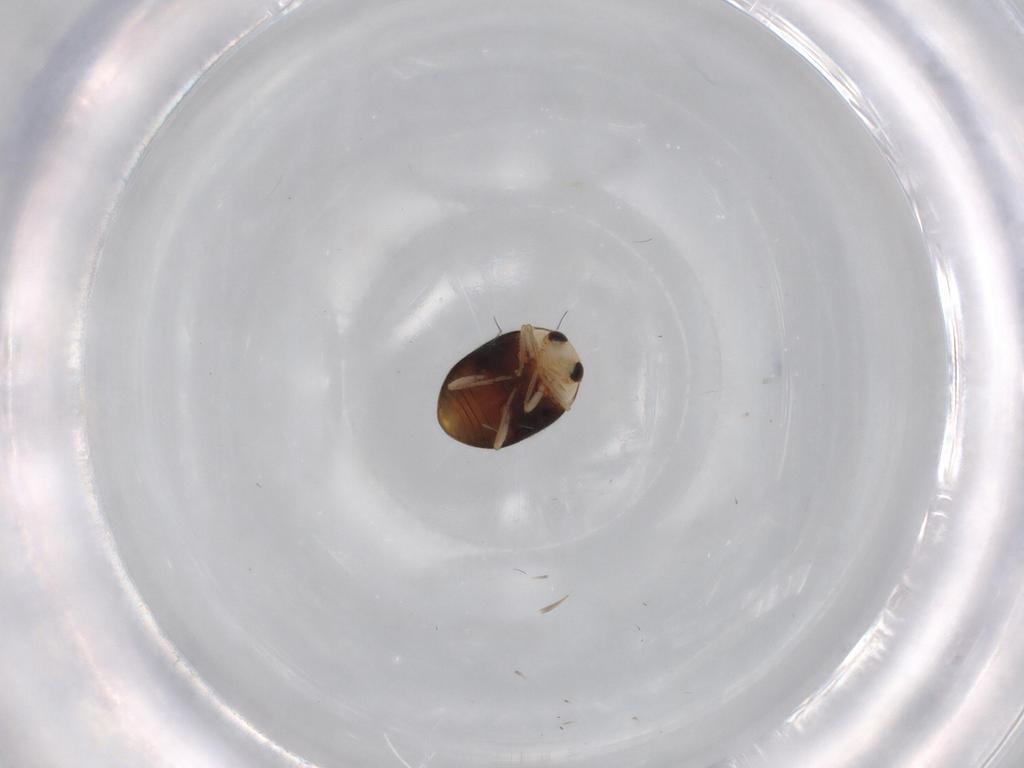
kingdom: Animalia
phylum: Arthropoda
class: Insecta
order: Coleoptera
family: Coccinellidae
